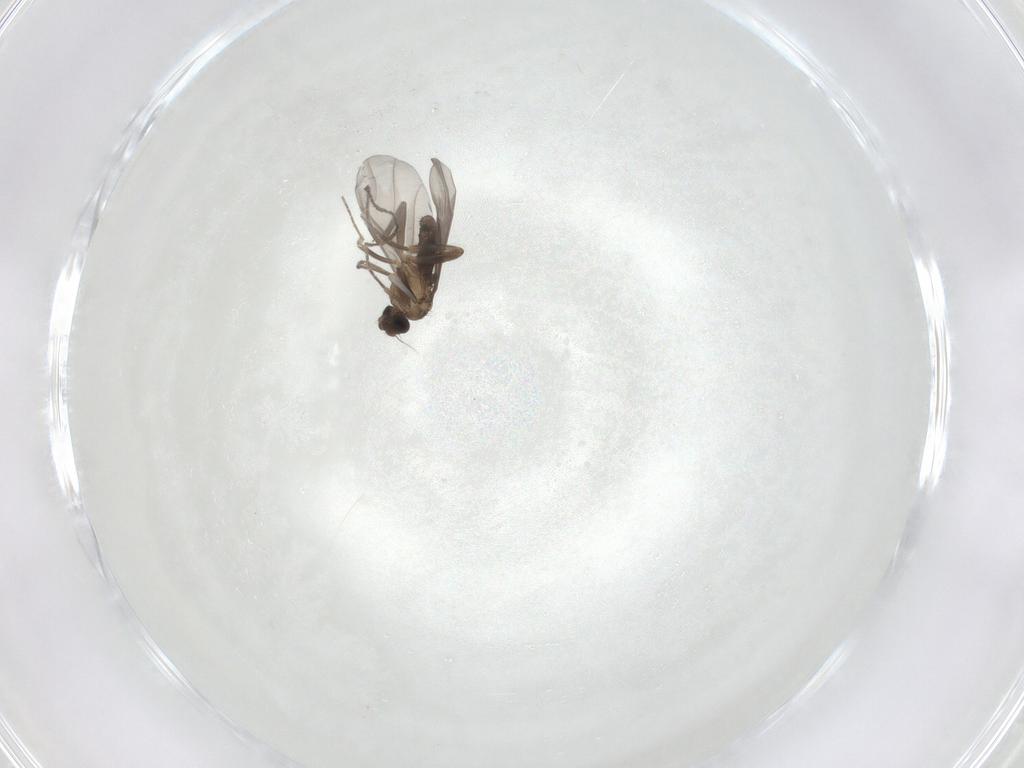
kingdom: Animalia
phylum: Arthropoda
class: Insecta
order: Diptera
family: Phoridae
